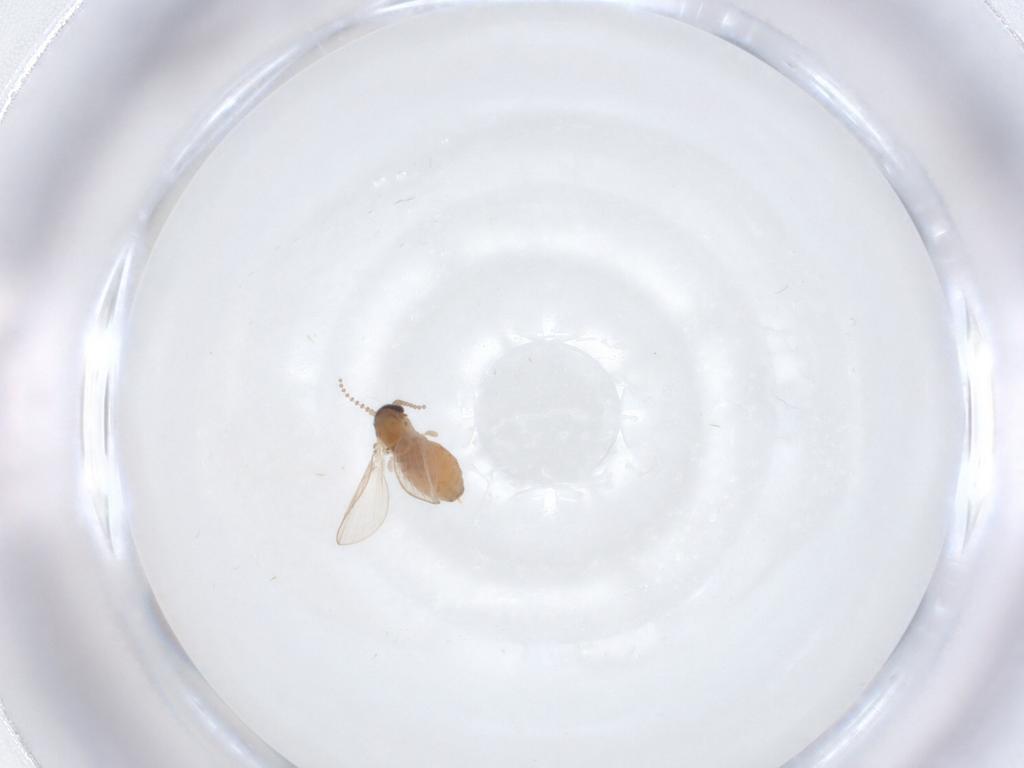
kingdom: Animalia
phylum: Arthropoda
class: Insecta
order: Diptera
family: Psychodidae
